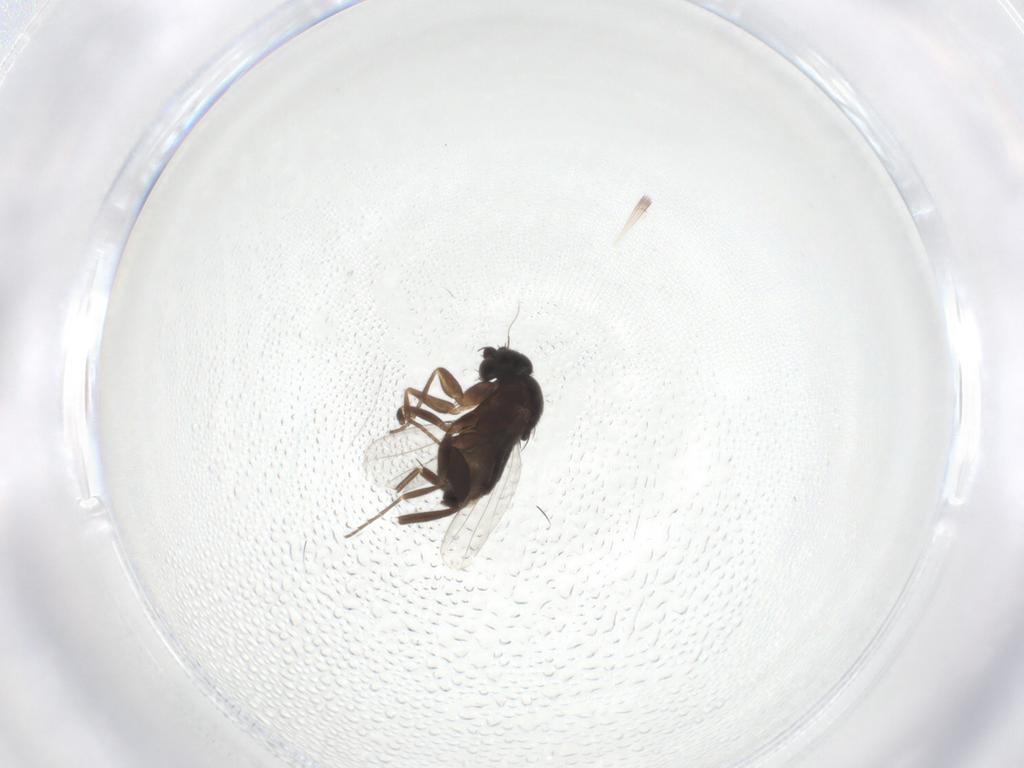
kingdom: Animalia
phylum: Arthropoda
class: Insecta
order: Diptera
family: Phoridae
